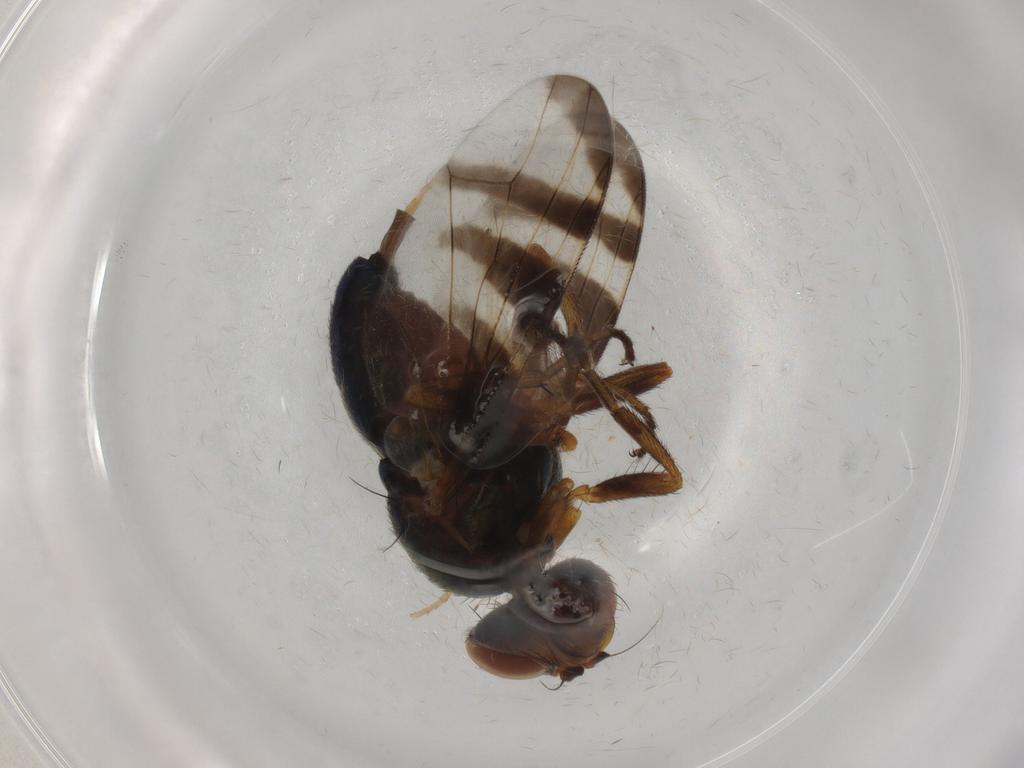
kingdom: Animalia
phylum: Arthropoda
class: Insecta
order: Diptera
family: Platystomatidae
